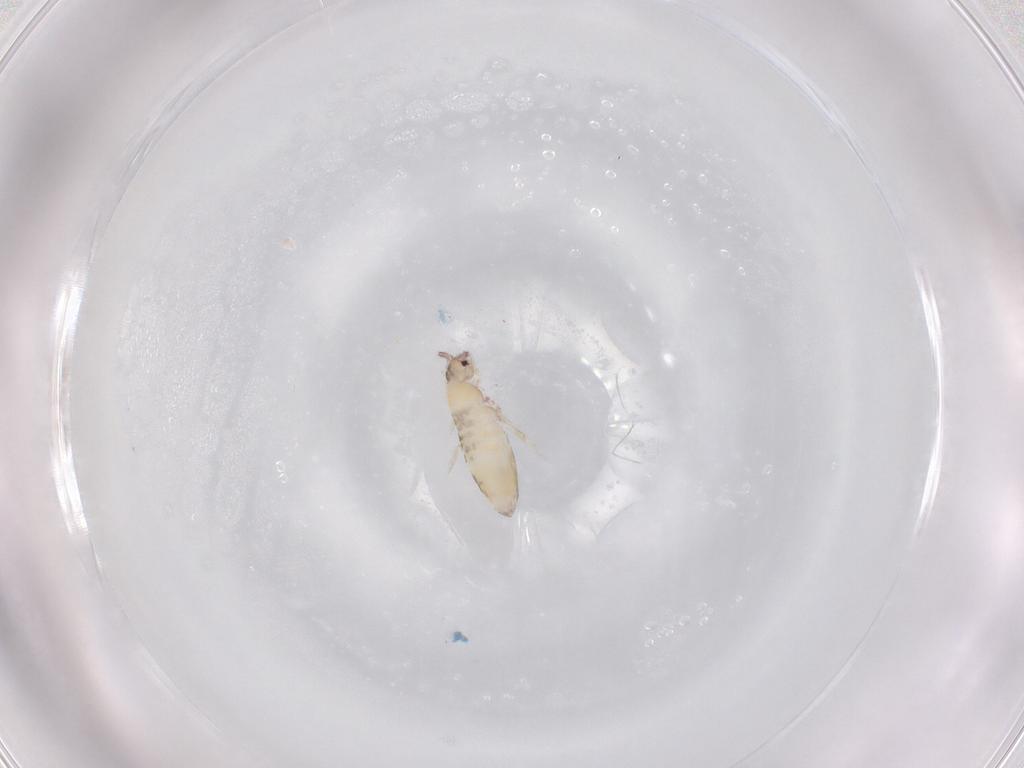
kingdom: Animalia
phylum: Arthropoda
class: Collembola
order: Entomobryomorpha
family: Entomobryidae
